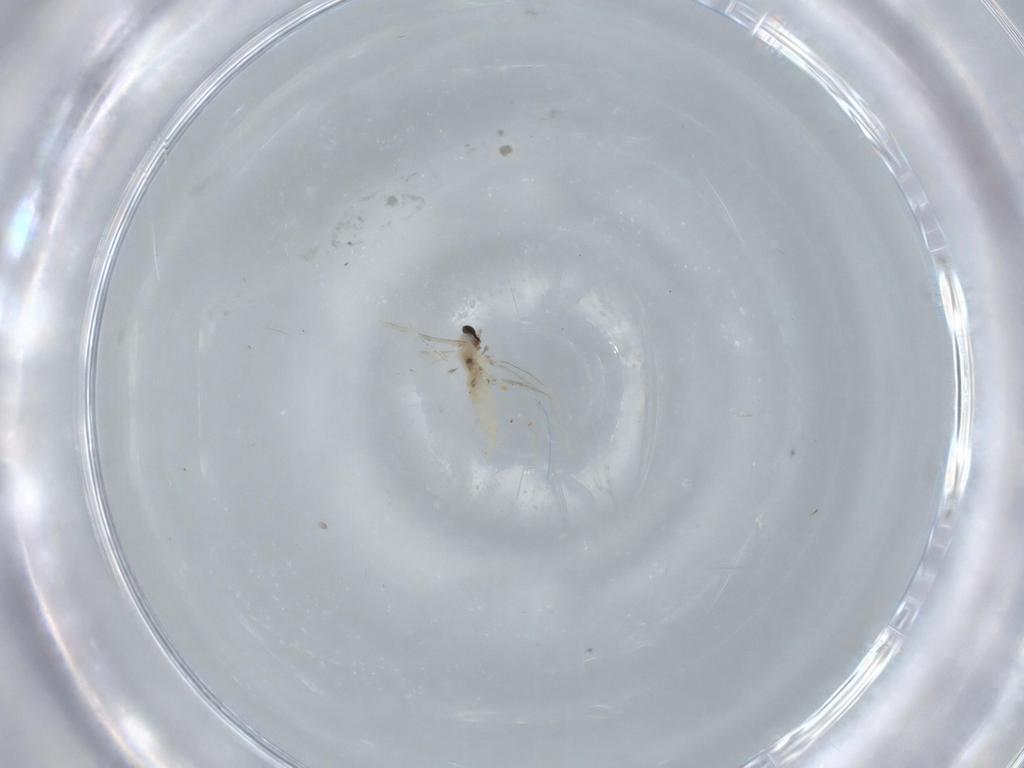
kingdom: Animalia
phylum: Arthropoda
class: Insecta
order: Diptera
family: Cecidomyiidae
